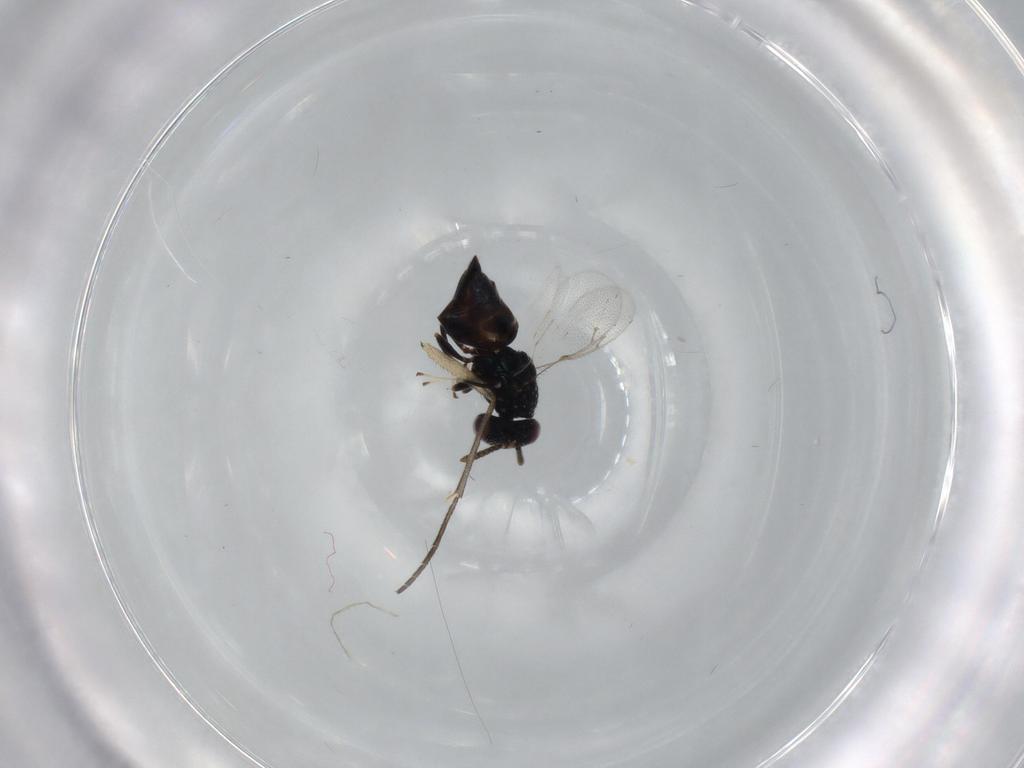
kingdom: Animalia
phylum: Arthropoda
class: Insecta
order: Hymenoptera
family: Pteromalidae
